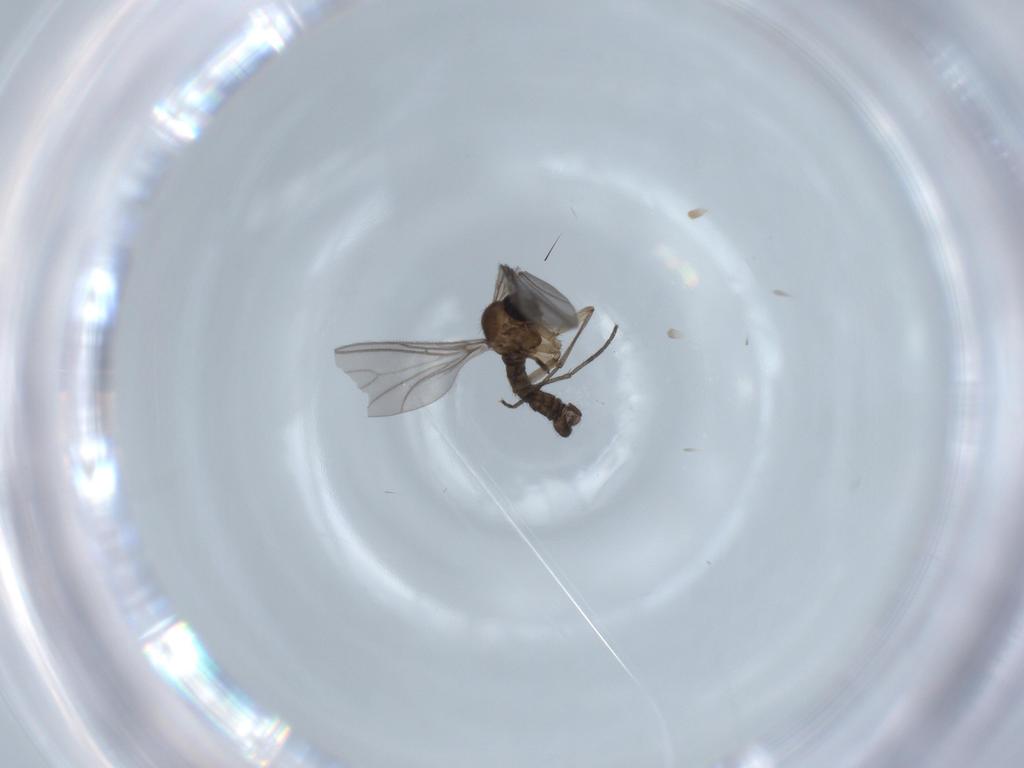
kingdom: Animalia
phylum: Arthropoda
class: Insecta
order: Diptera
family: Sciaridae
